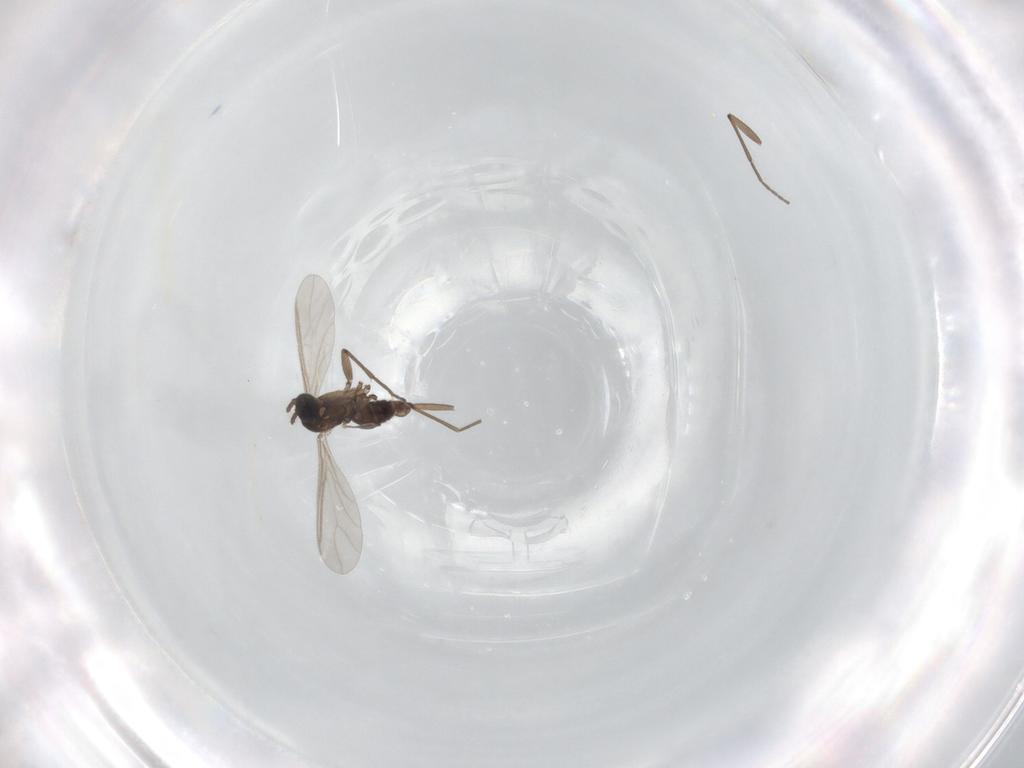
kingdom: Animalia
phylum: Arthropoda
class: Insecta
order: Diptera
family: Sciaridae
